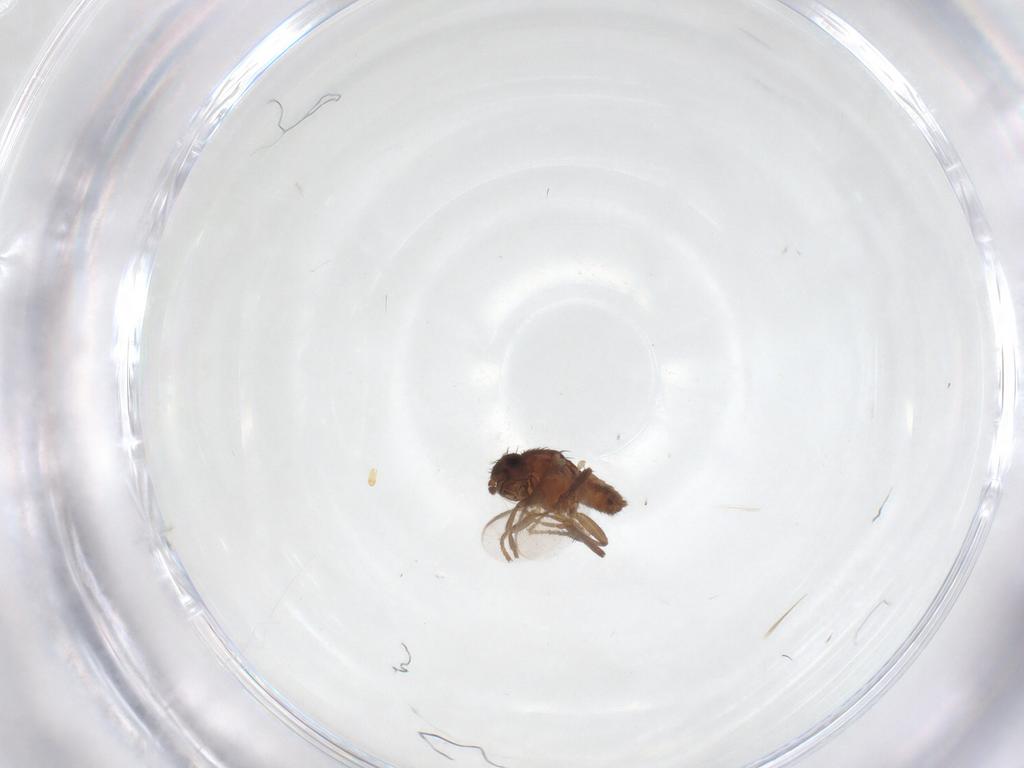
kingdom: Animalia
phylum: Arthropoda
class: Insecta
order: Diptera
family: Sphaeroceridae
